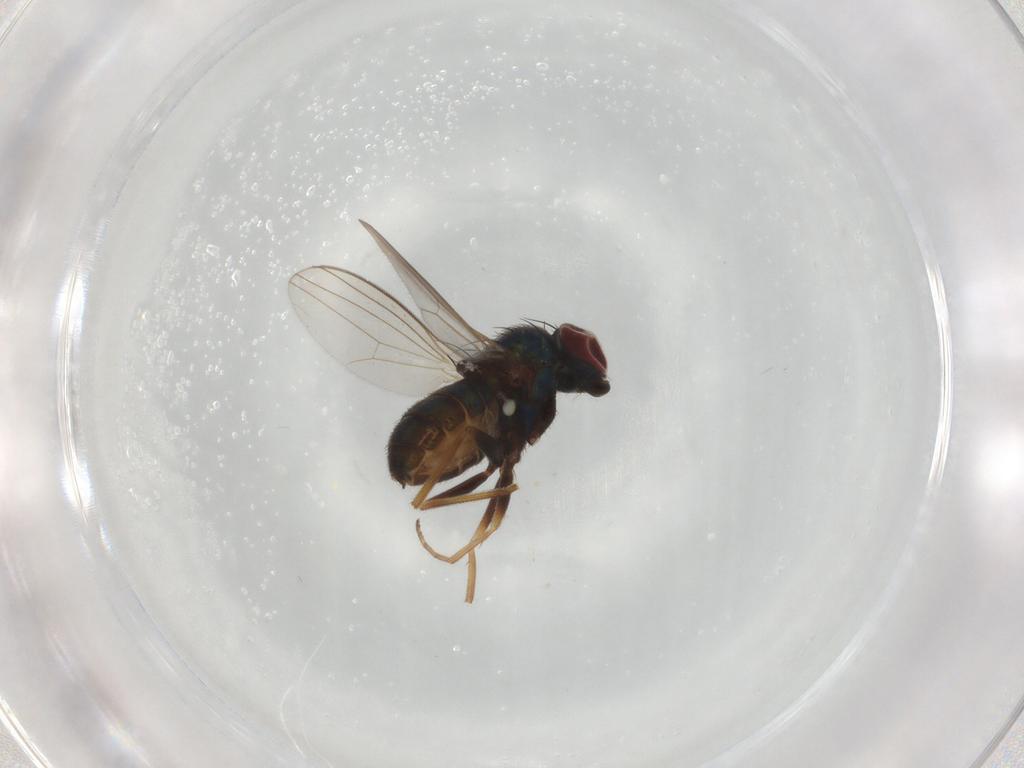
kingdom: Animalia
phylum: Arthropoda
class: Insecta
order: Diptera
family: Dolichopodidae
